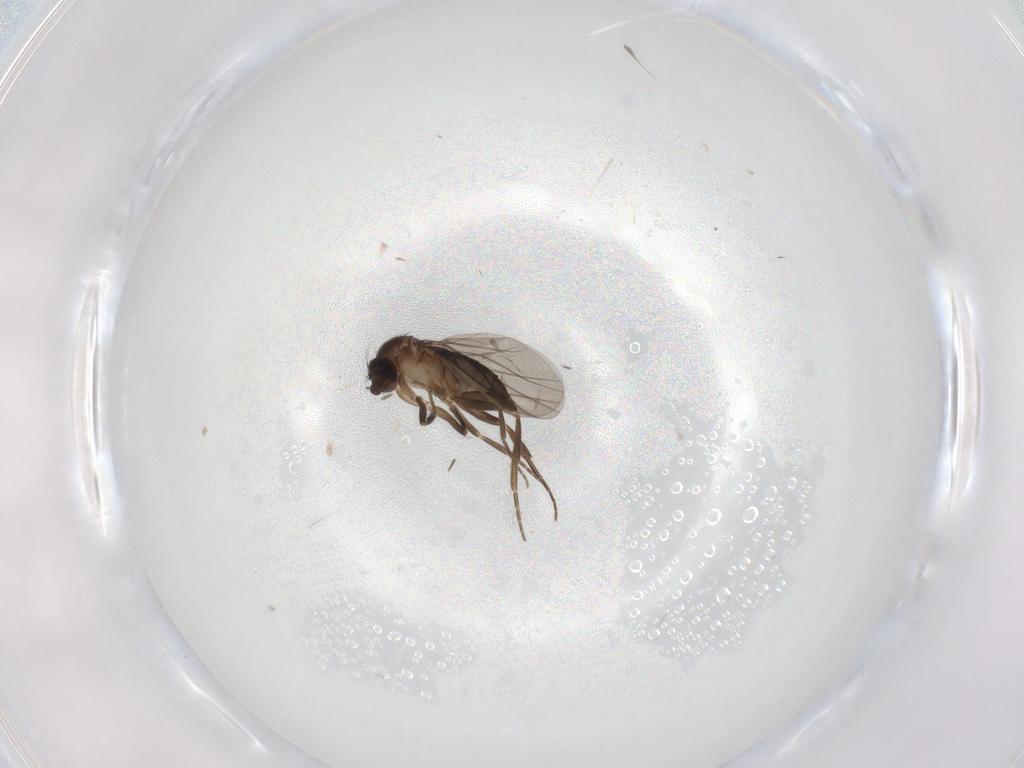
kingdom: Animalia
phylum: Arthropoda
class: Insecta
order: Diptera
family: Phoridae
